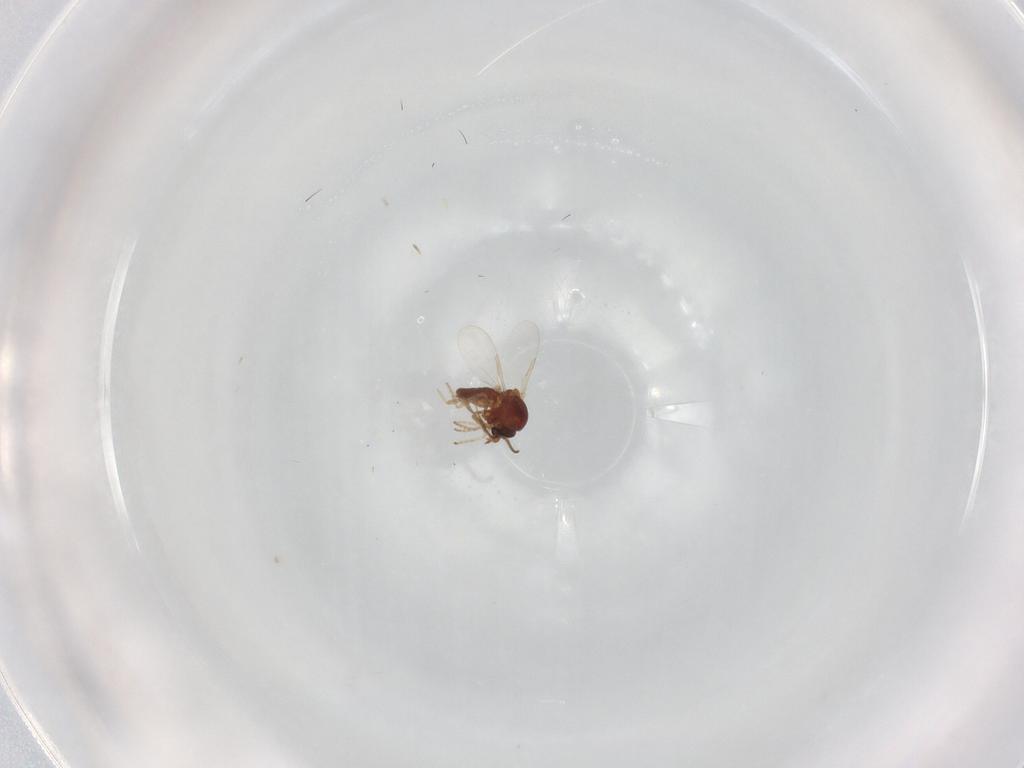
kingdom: Animalia
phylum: Arthropoda
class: Insecta
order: Diptera
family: Ceratopogonidae
